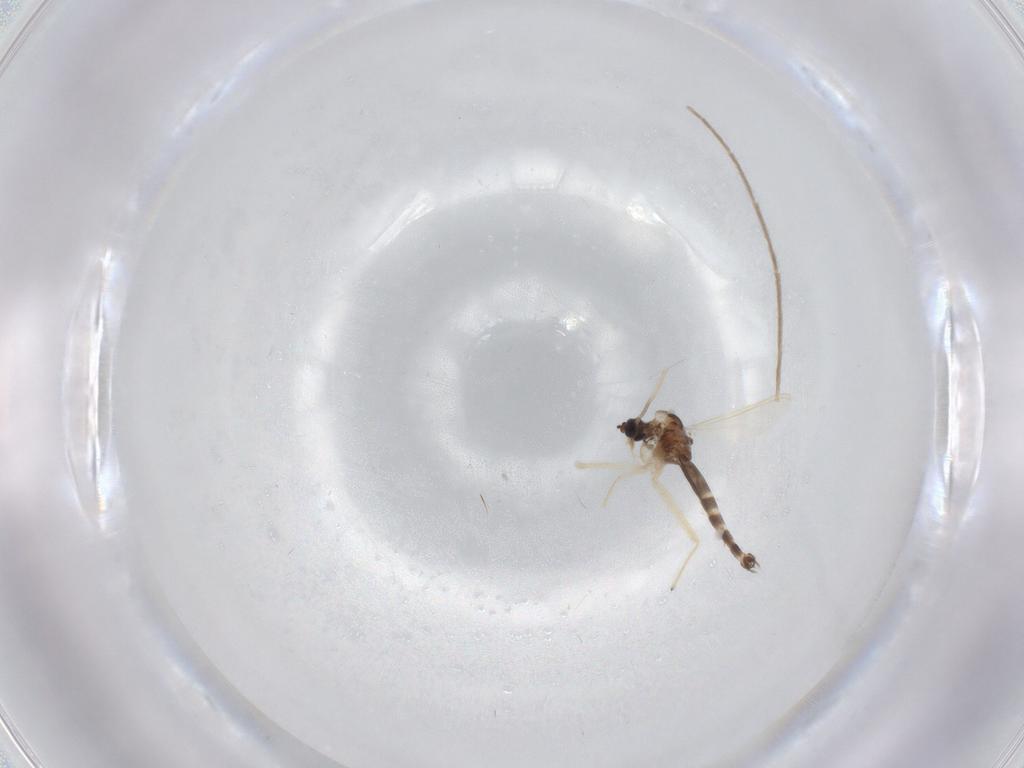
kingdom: Animalia
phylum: Arthropoda
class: Insecta
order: Diptera
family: Chironomidae
